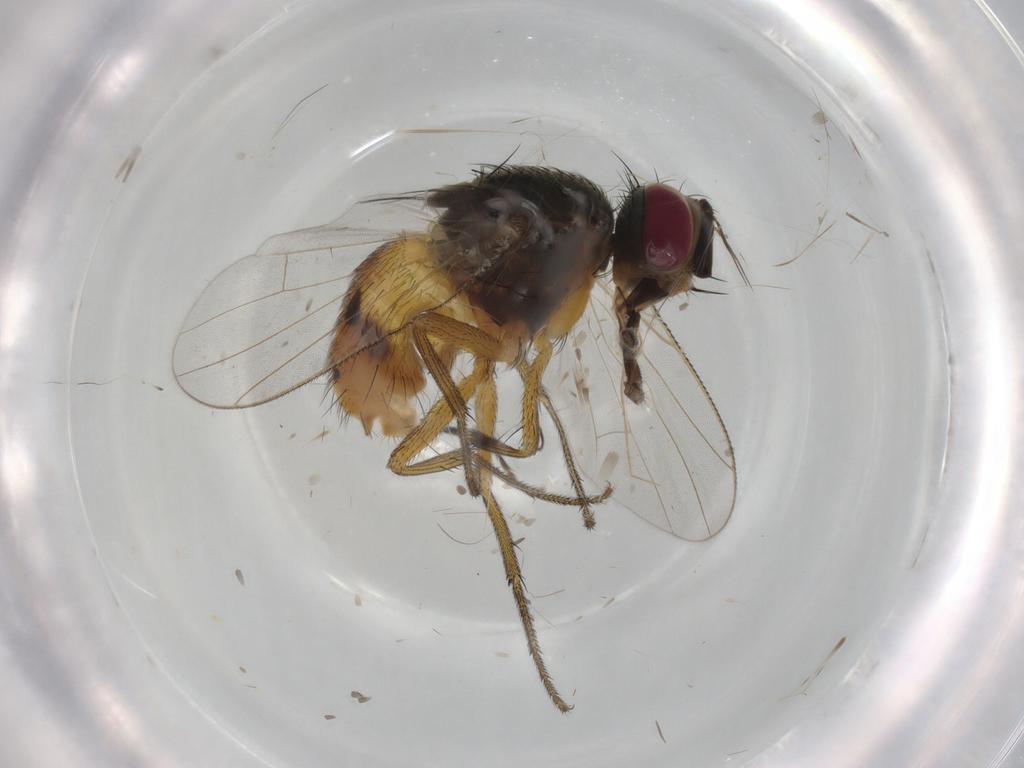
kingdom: Animalia
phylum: Arthropoda
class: Insecta
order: Diptera
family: Muscidae
